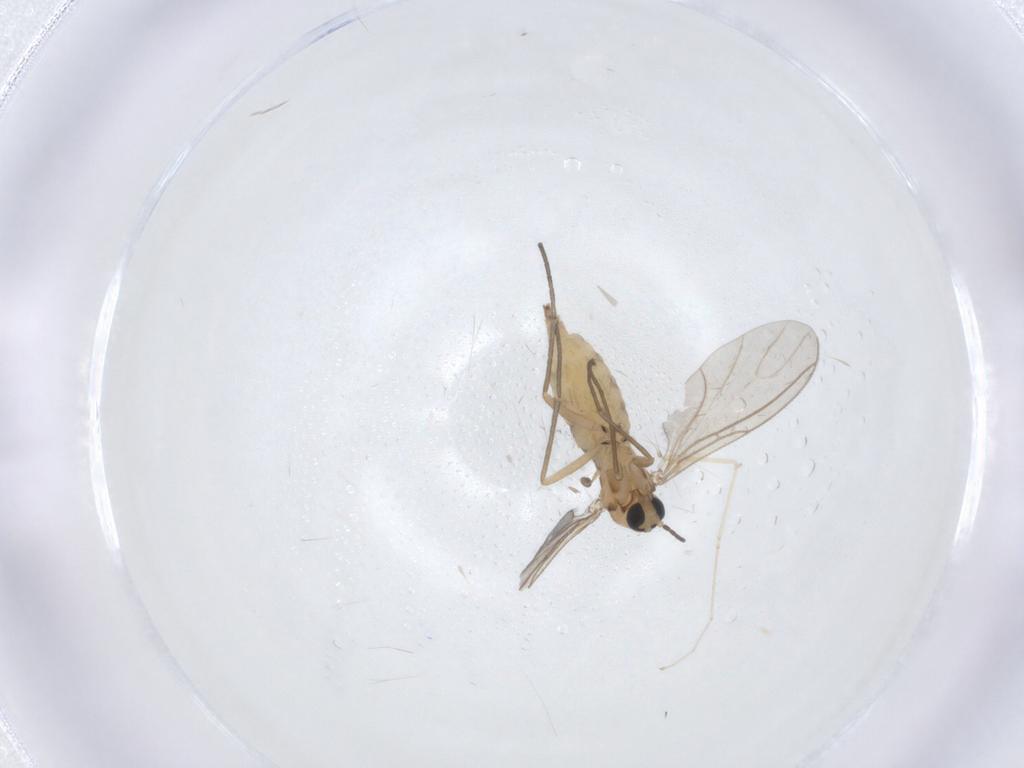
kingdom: Animalia
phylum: Arthropoda
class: Insecta
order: Diptera
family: Sciaridae
